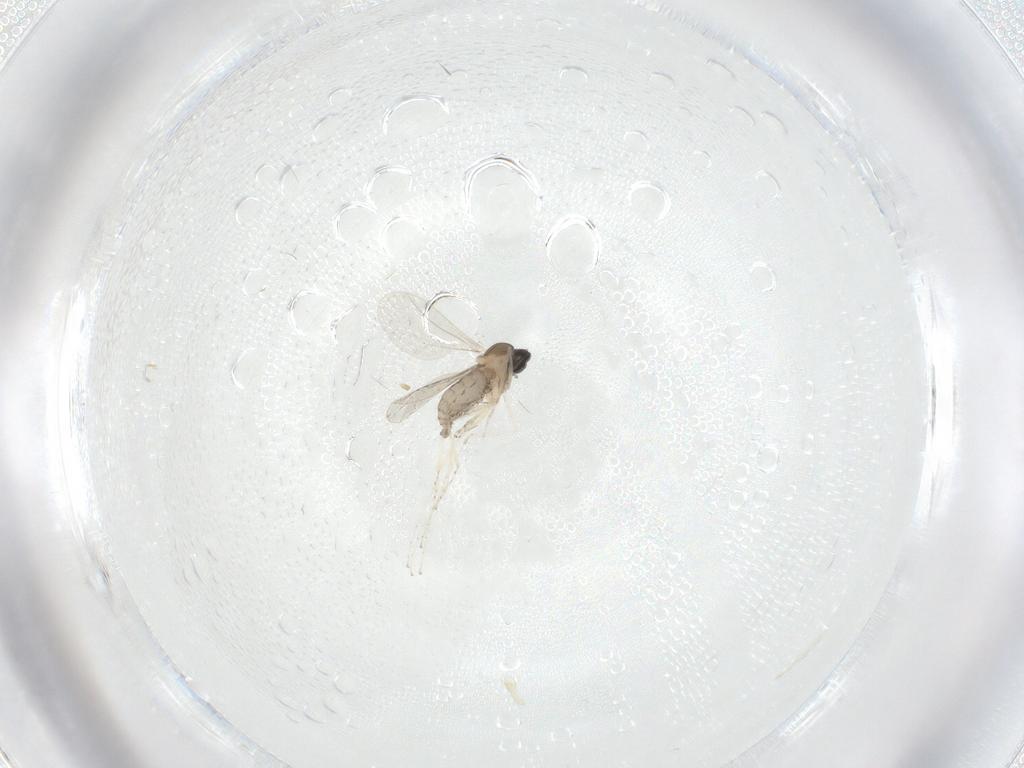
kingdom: Animalia
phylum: Arthropoda
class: Insecta
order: Diptera
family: Cecidomyiidae
